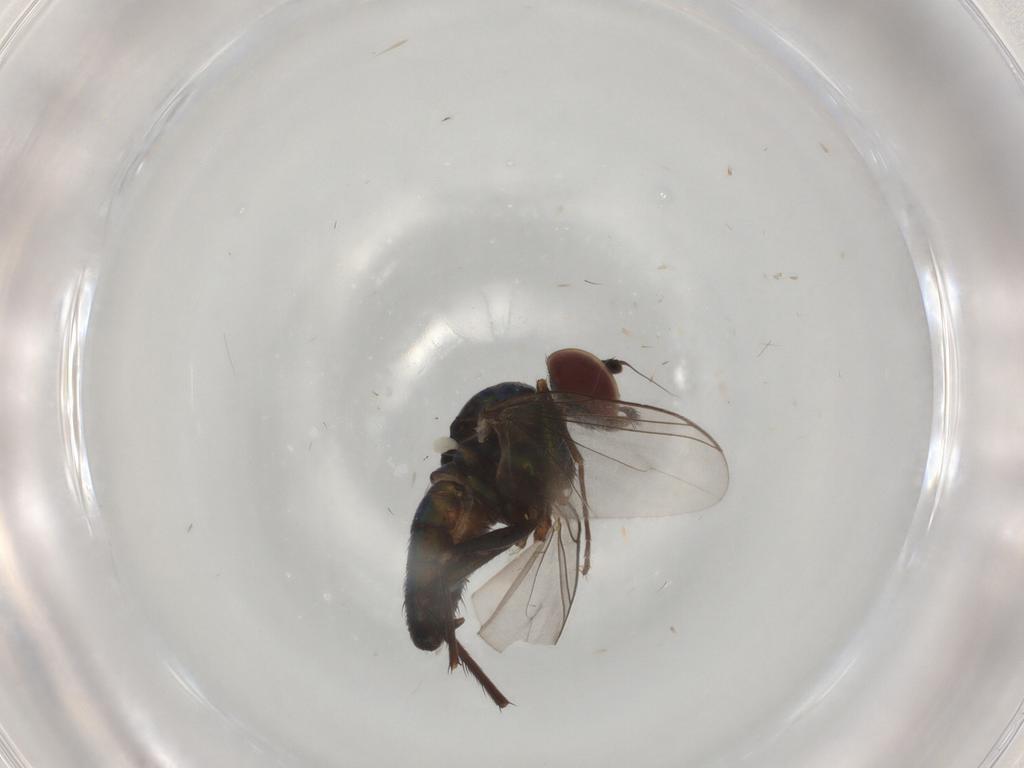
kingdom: Animalia
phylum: Arthropoda
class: Insecta
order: Diptera
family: Dolichopodidae
